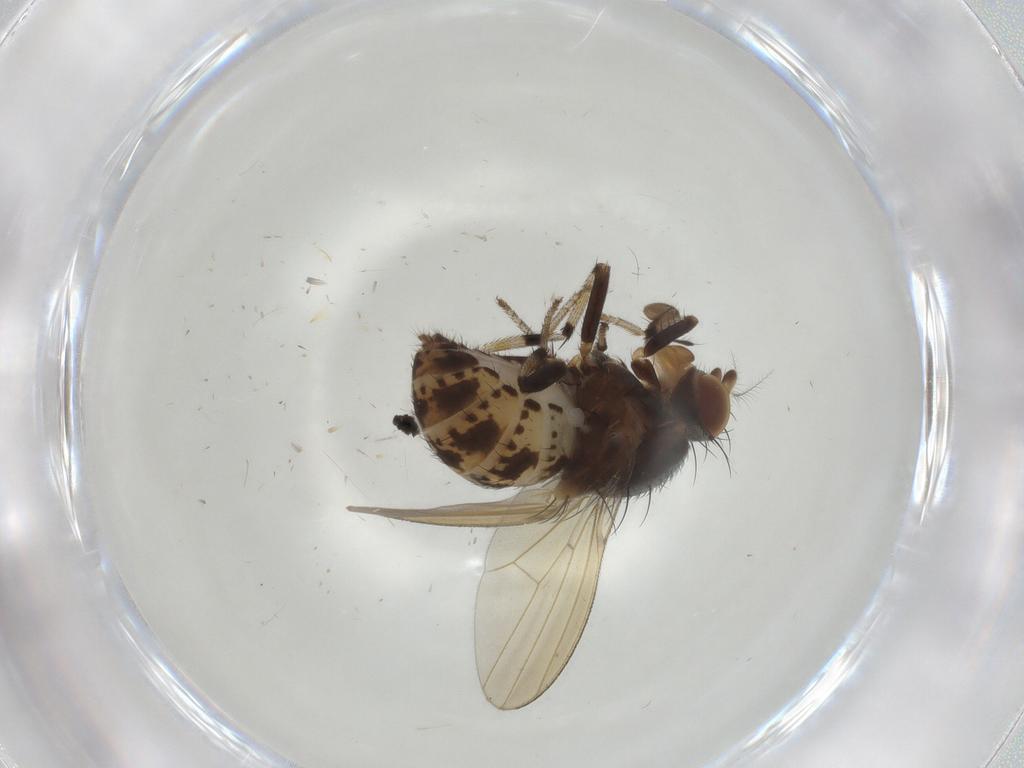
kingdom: Animalia
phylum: Arthropoda
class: Insecta
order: Diptera
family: Clusiidae
